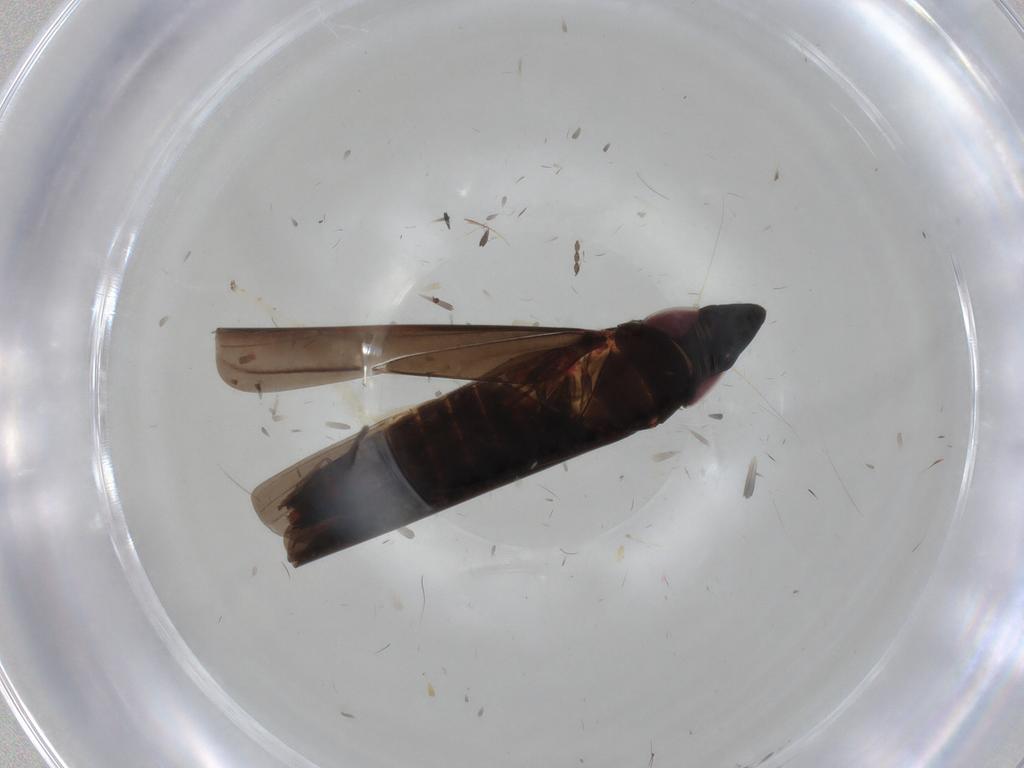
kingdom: Animalia
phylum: Arthropoda
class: Insecta
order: Hemiptera
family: Cicadellidae
